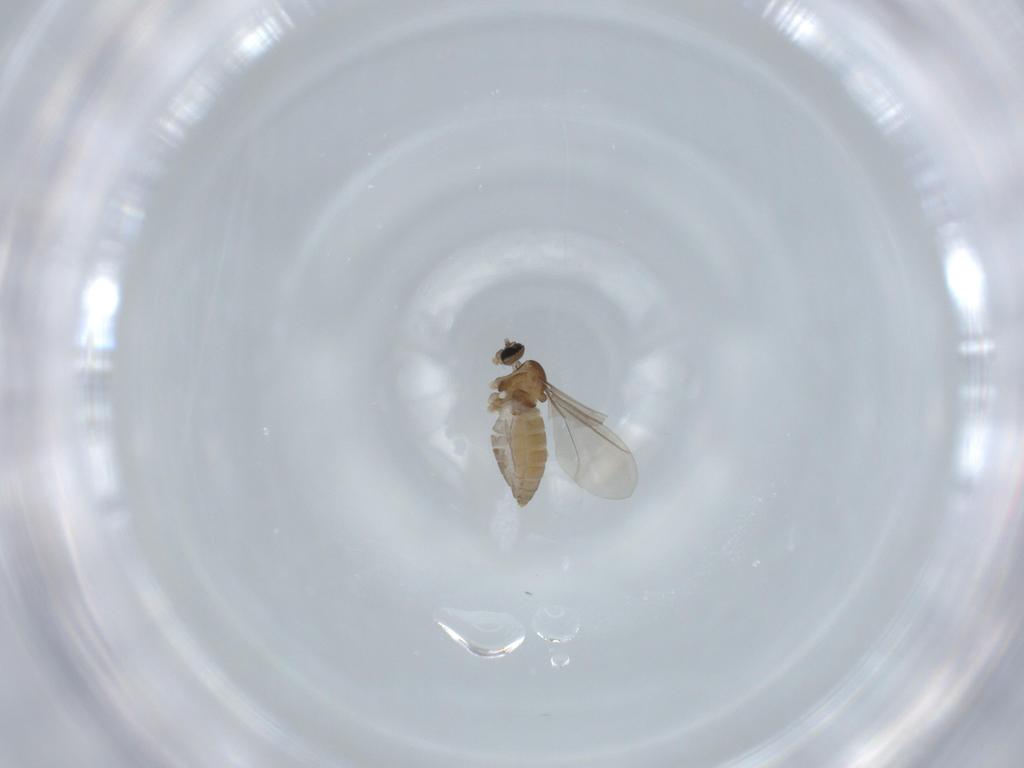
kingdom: Animalia
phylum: Arthropoda
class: Insecta
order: Diptera
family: Cecidomyiidae
